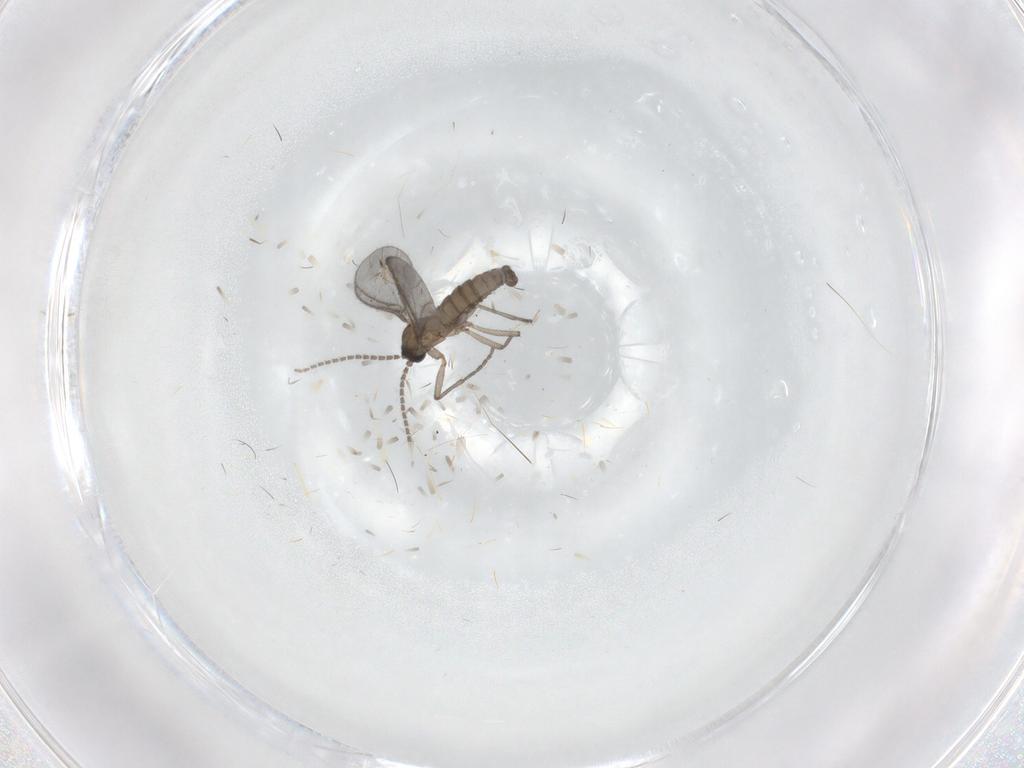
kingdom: Animalia
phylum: Arthropoda
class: Insecta
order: Diptera
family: Sciaridae
